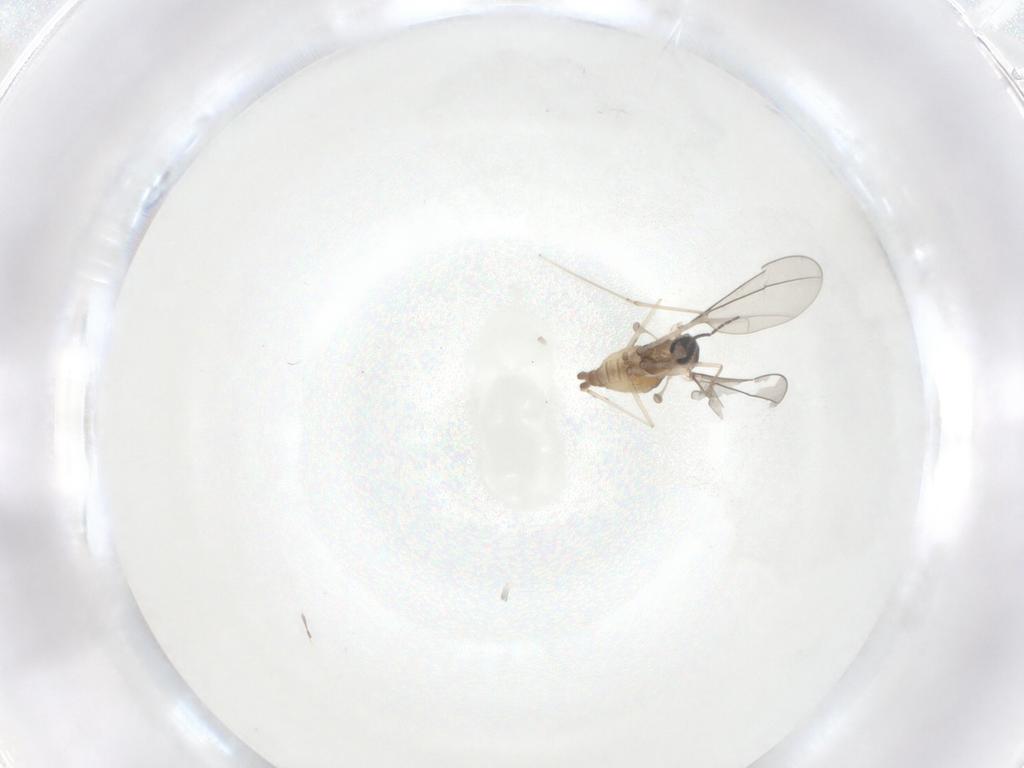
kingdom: Animalia
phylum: Arthropoda
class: Insecta
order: Diptera
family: Cecidomyiidae
